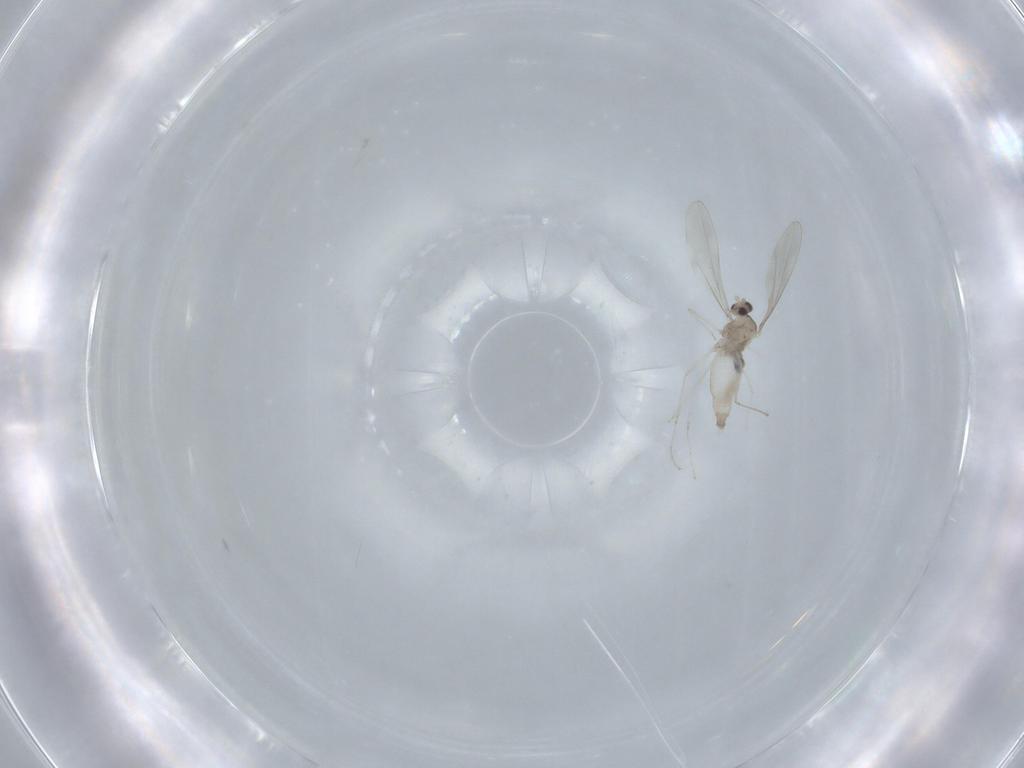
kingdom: Animalia
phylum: Arthropoda
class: Insecta
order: Diptera
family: Cecidomyiidae
